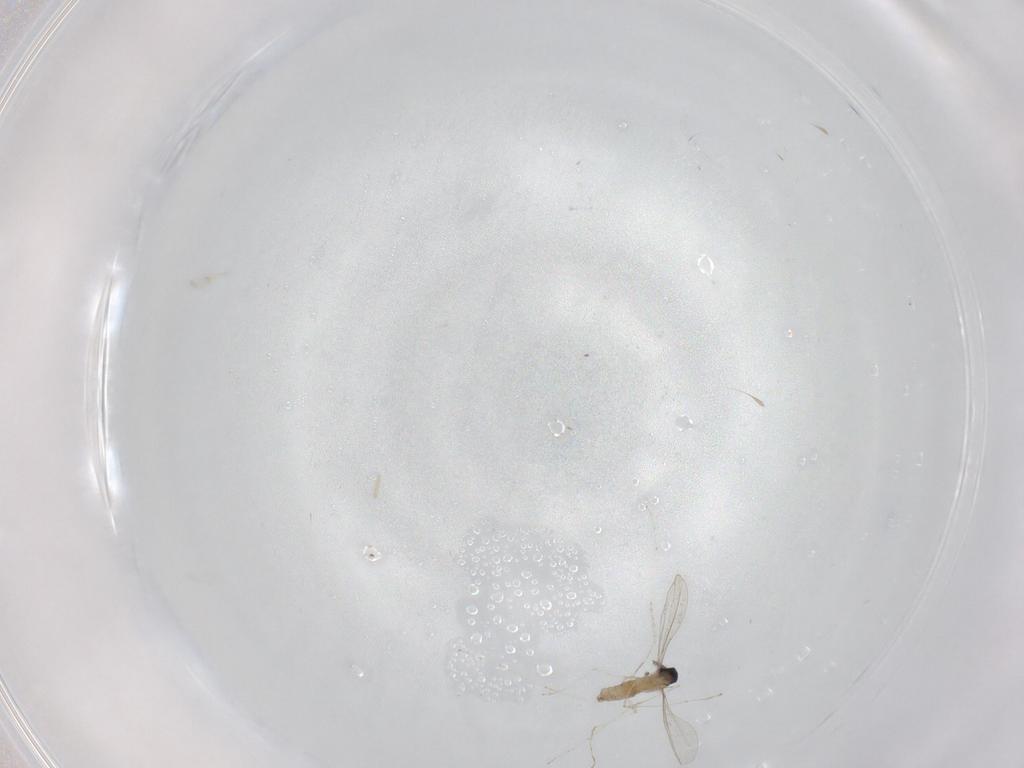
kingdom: Animalia
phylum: Arthropoda
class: Insecta
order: Diptera
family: Ceratopogonidae
